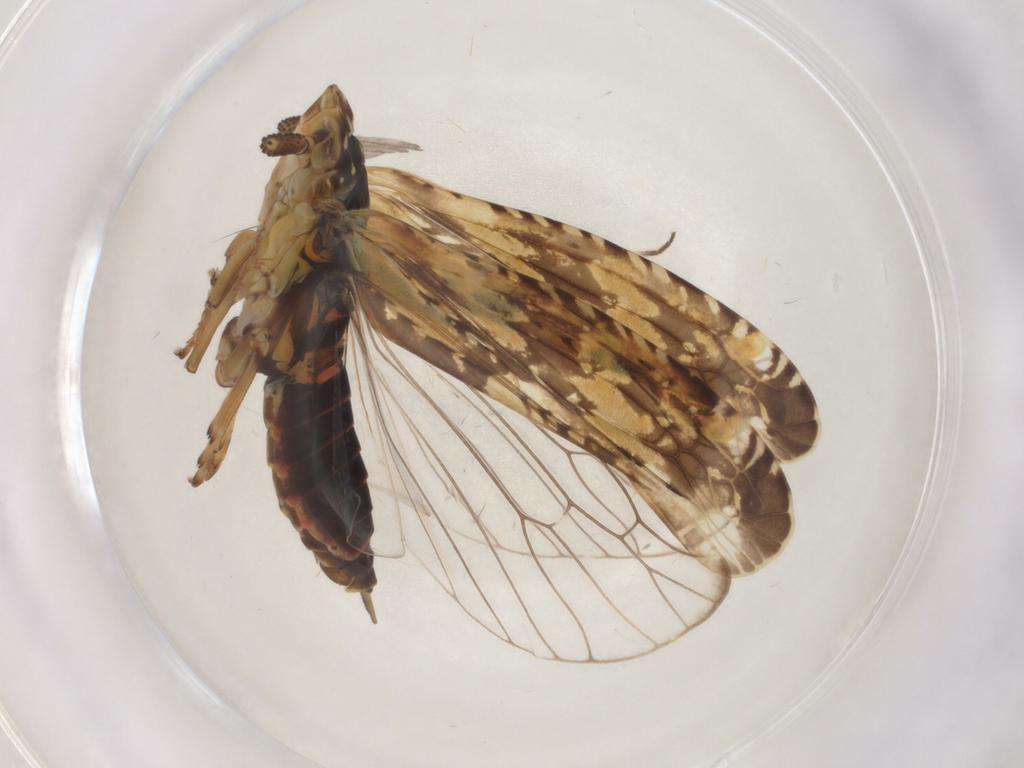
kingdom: Animalia
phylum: Arthropoda
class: Insecta
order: Hemiptera
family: Achilidae
